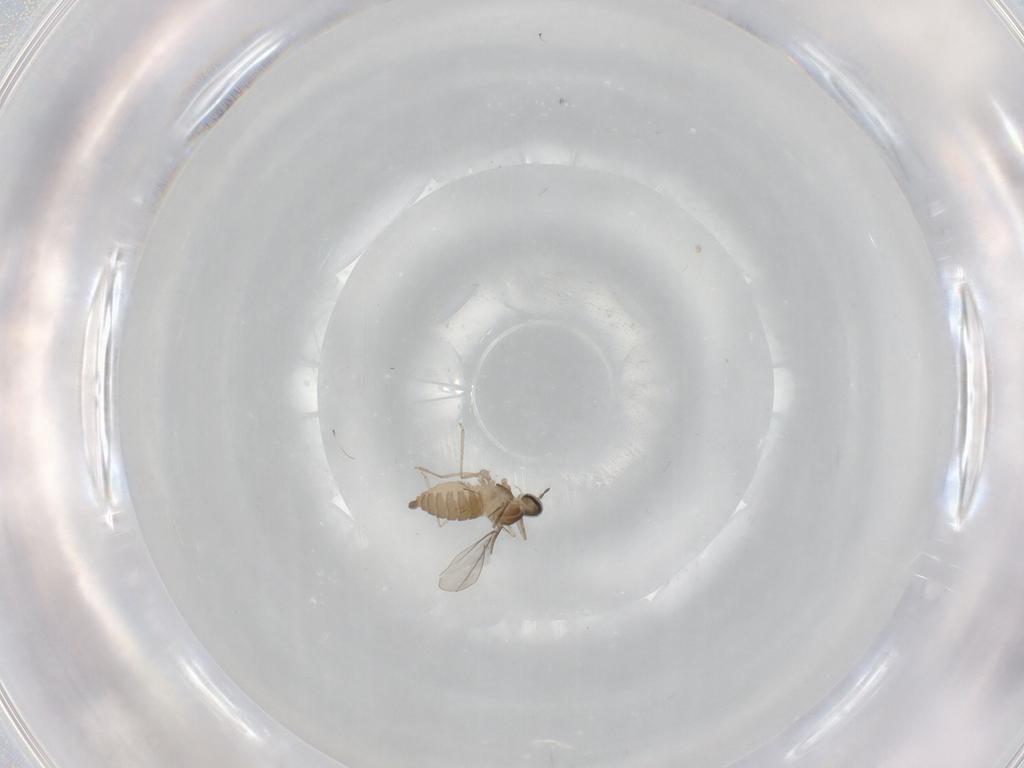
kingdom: Animalia
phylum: Arthropoda
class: Insecta
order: Diptera
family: Cecidomyiidae
